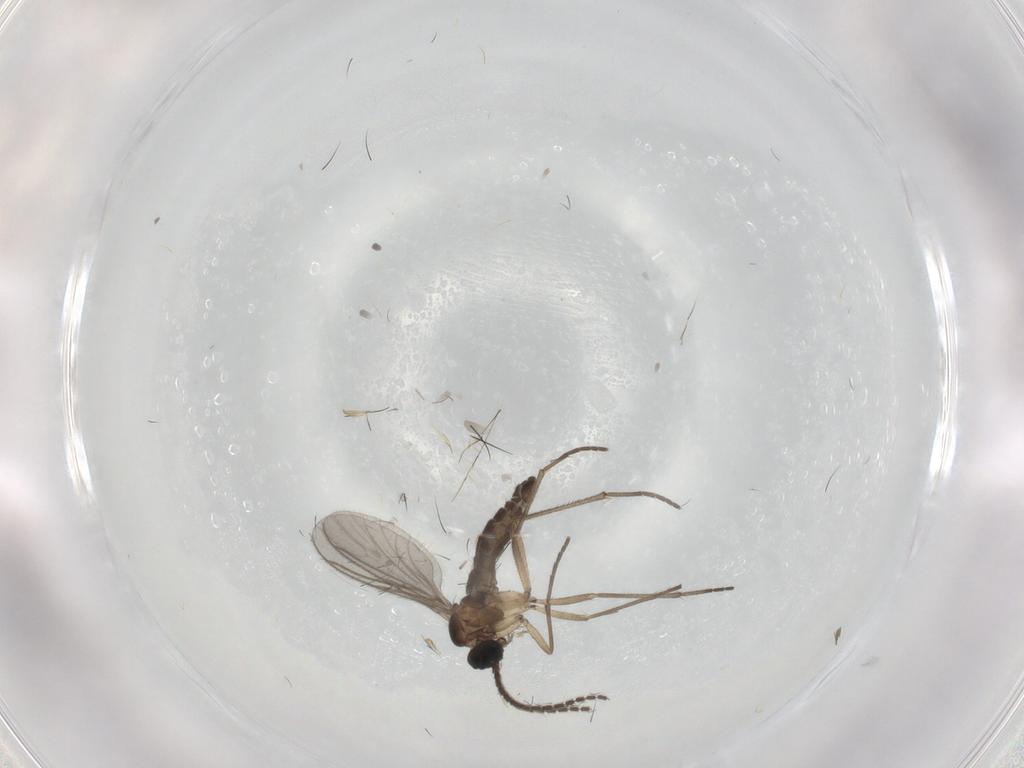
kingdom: Animalia
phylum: Arthropoda
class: Insecta
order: Diptera
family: Sciaridae
